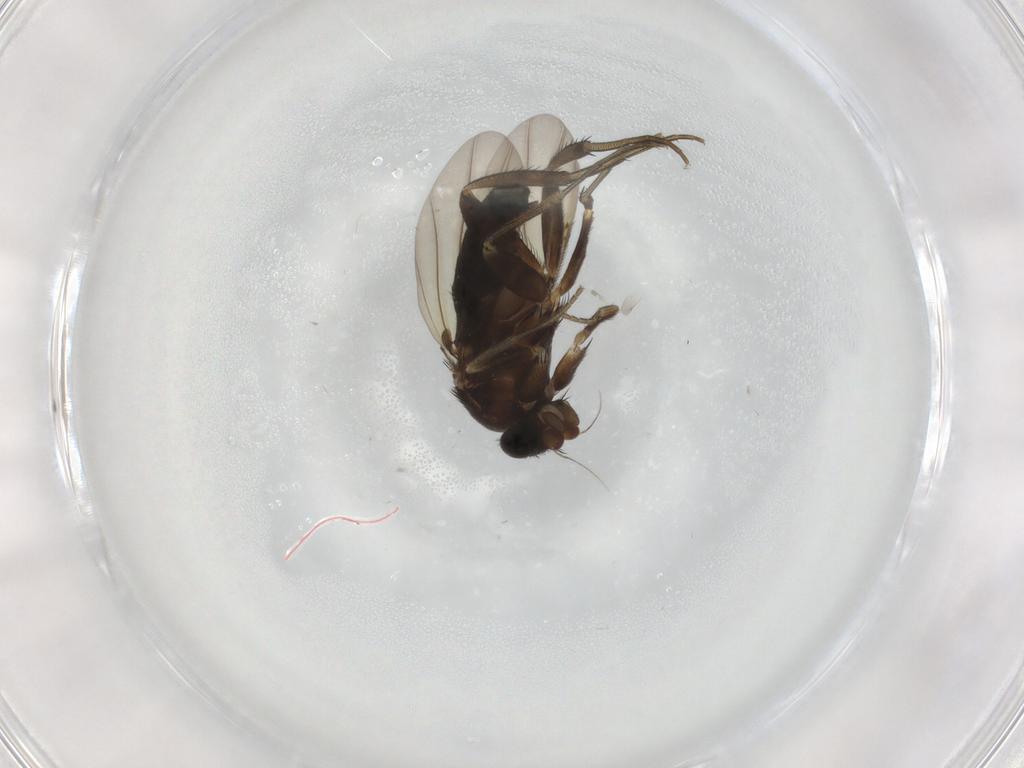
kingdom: Animalia
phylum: Arthropoda
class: Insecta
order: Diptera
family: Phoridae
